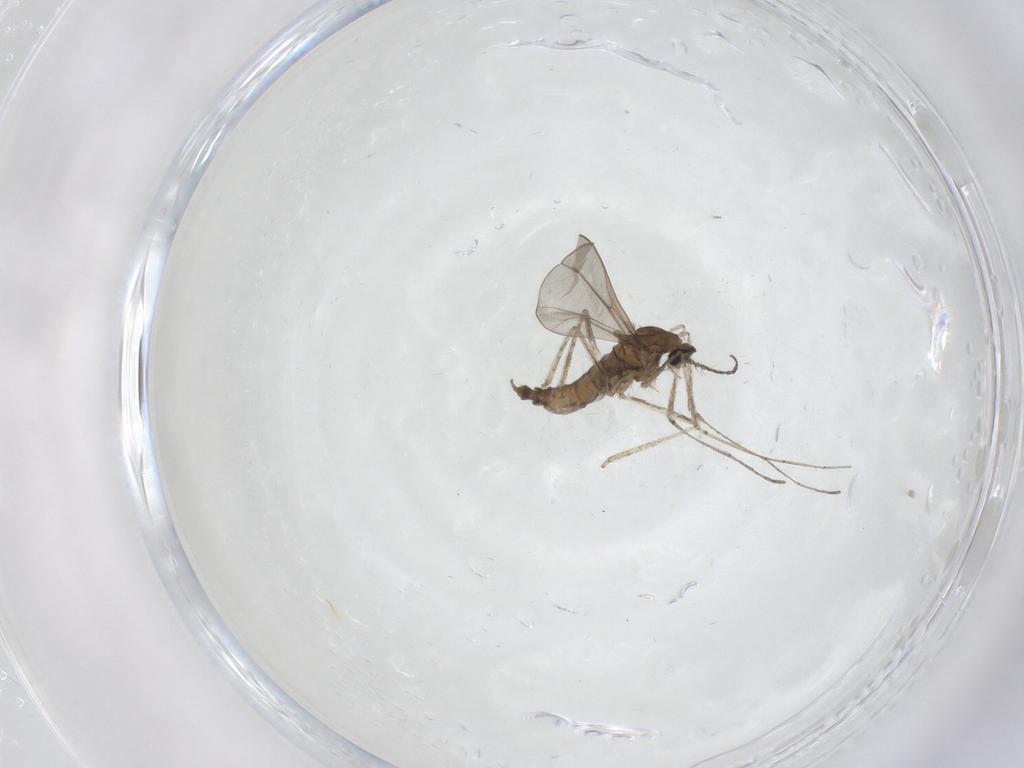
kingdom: Animalia
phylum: Arthropoda
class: Insecta
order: Diptera
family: Cecidomyiidae
